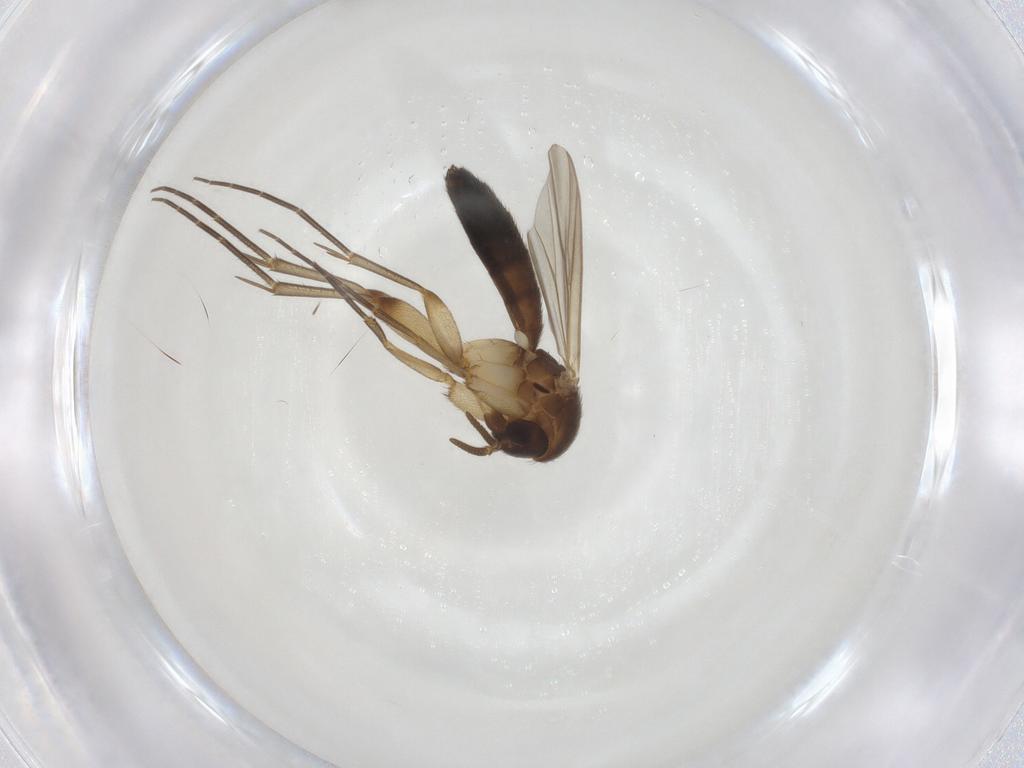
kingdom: Animalia
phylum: Arthropoda
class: Insecta
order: Diptera
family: Mycetophilidae
